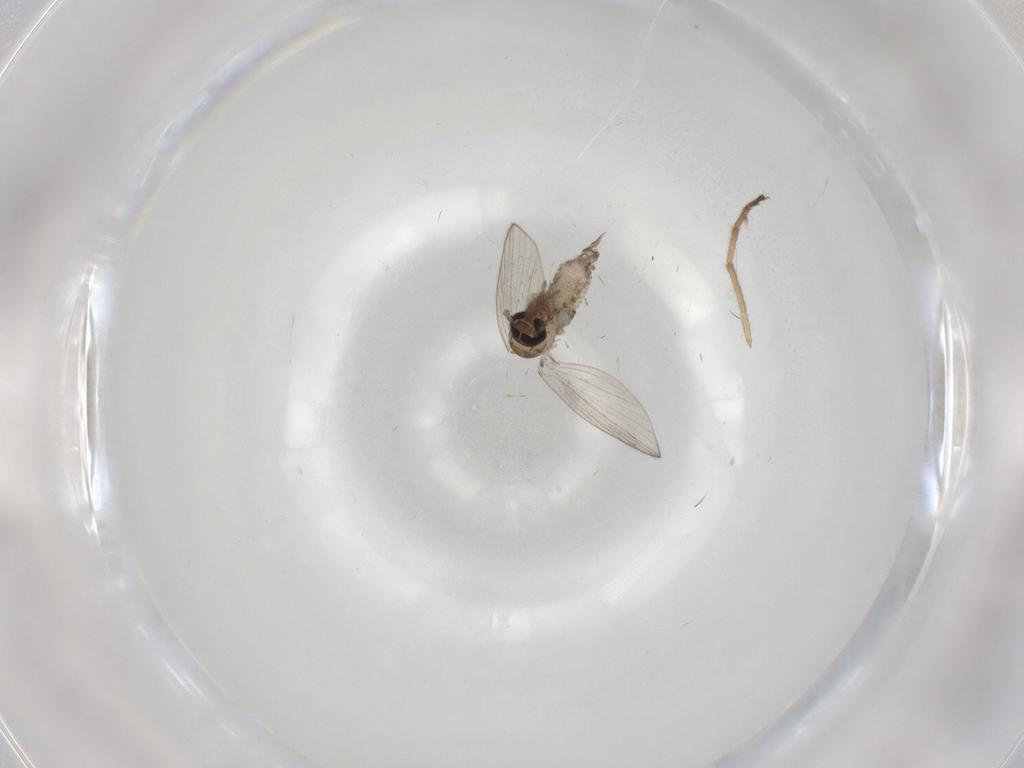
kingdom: Animalia
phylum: Arthropoda
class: Insecta
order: Diptera
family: Psychodidae
